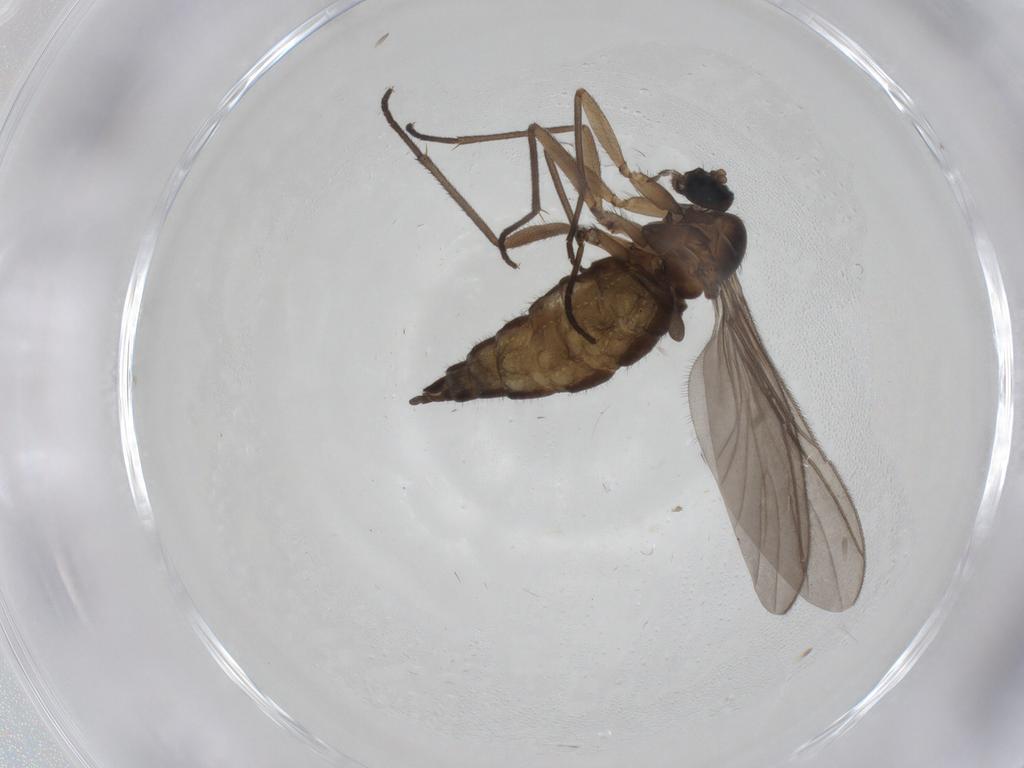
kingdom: Animalia
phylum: Arthropoda
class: Insecta
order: Diptera
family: Sciaridae
